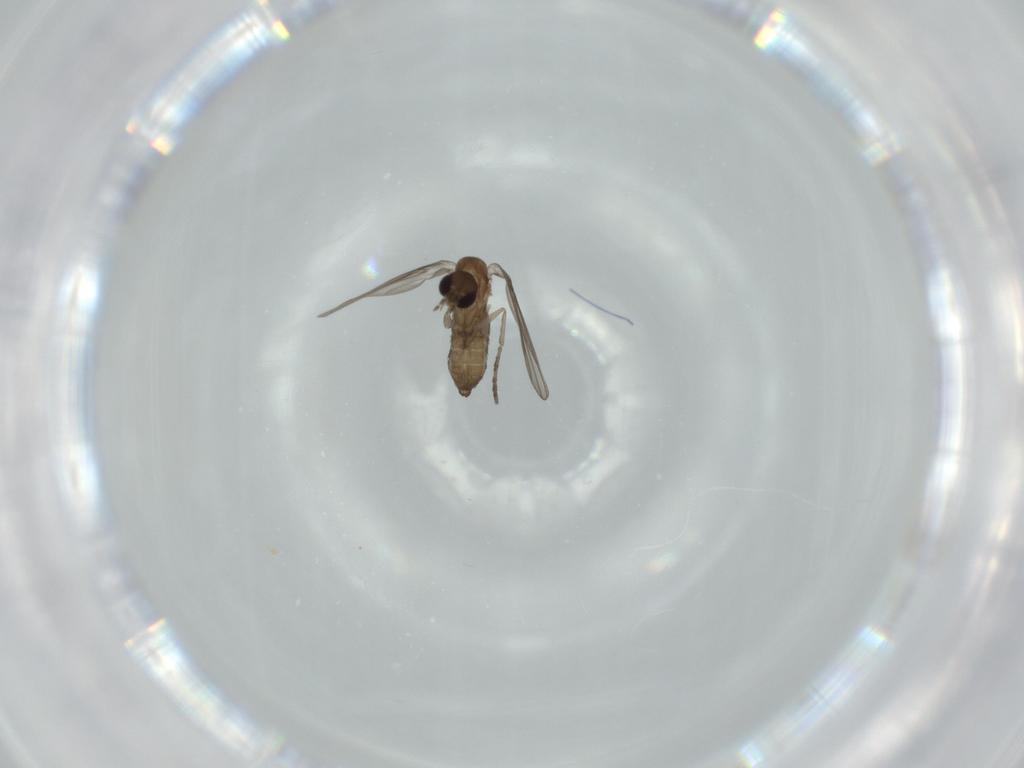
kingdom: Animalia
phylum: Arthropoda
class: Insecta
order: Diptera
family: Psychodidae
